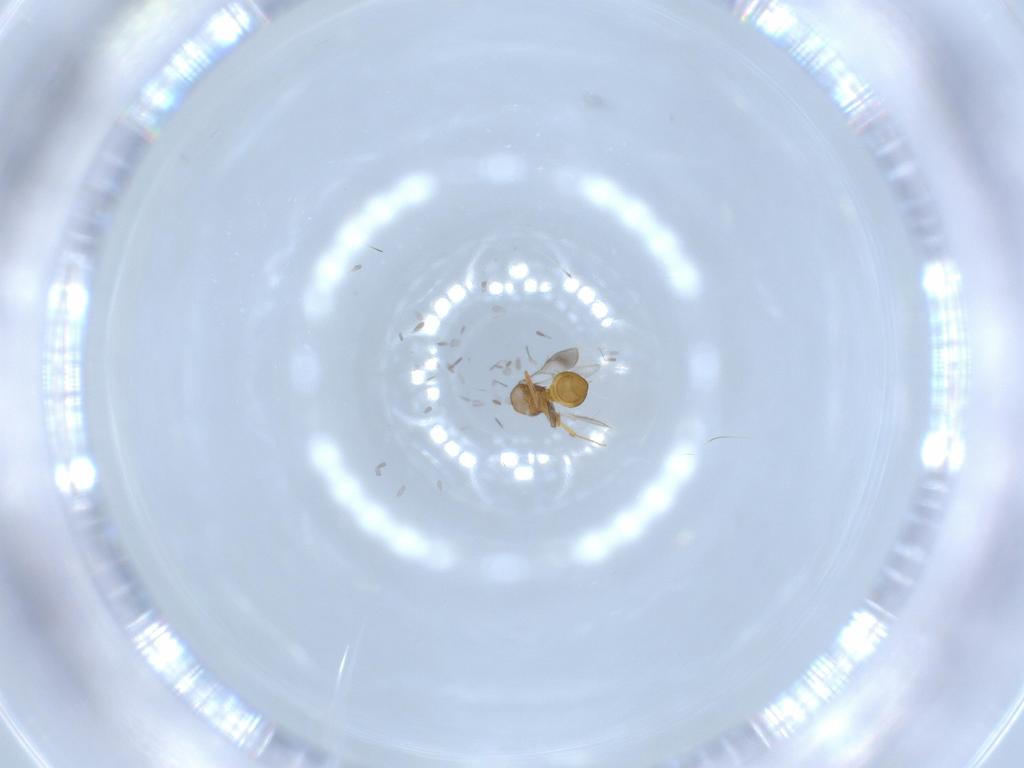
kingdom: Animalia
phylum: Arthropoda
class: Insecta
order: Hymenoptera
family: Scelionidae
